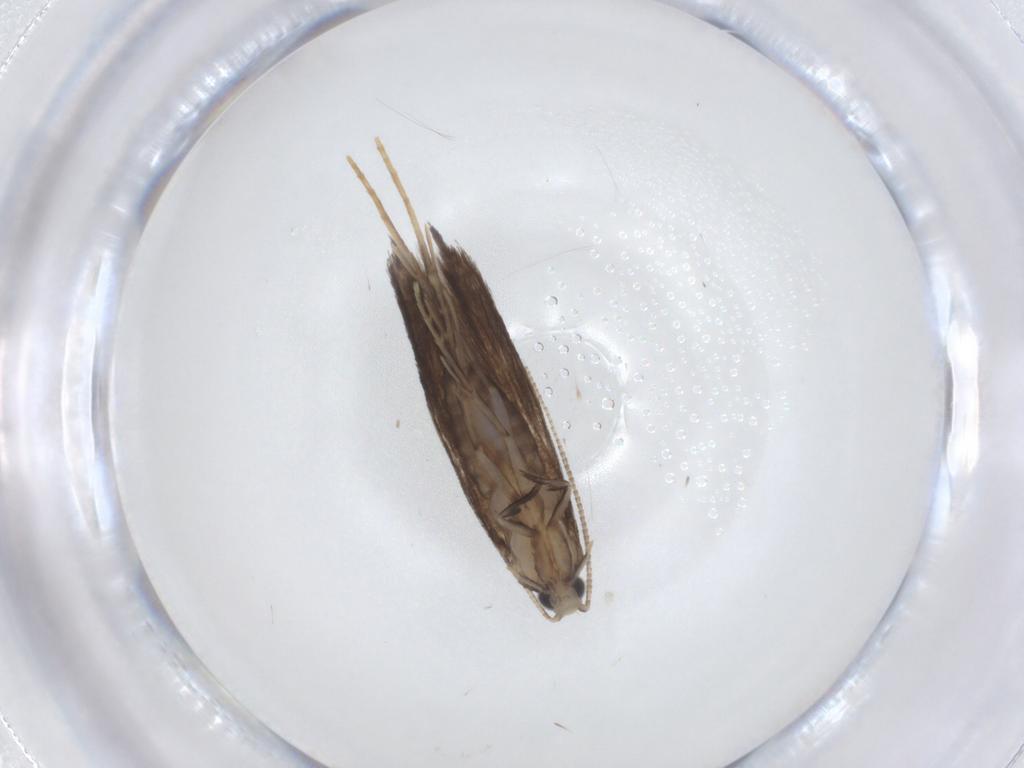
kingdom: Animalia
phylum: Arthropoda
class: Insecta
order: Lepidoptera
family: Tineidae
